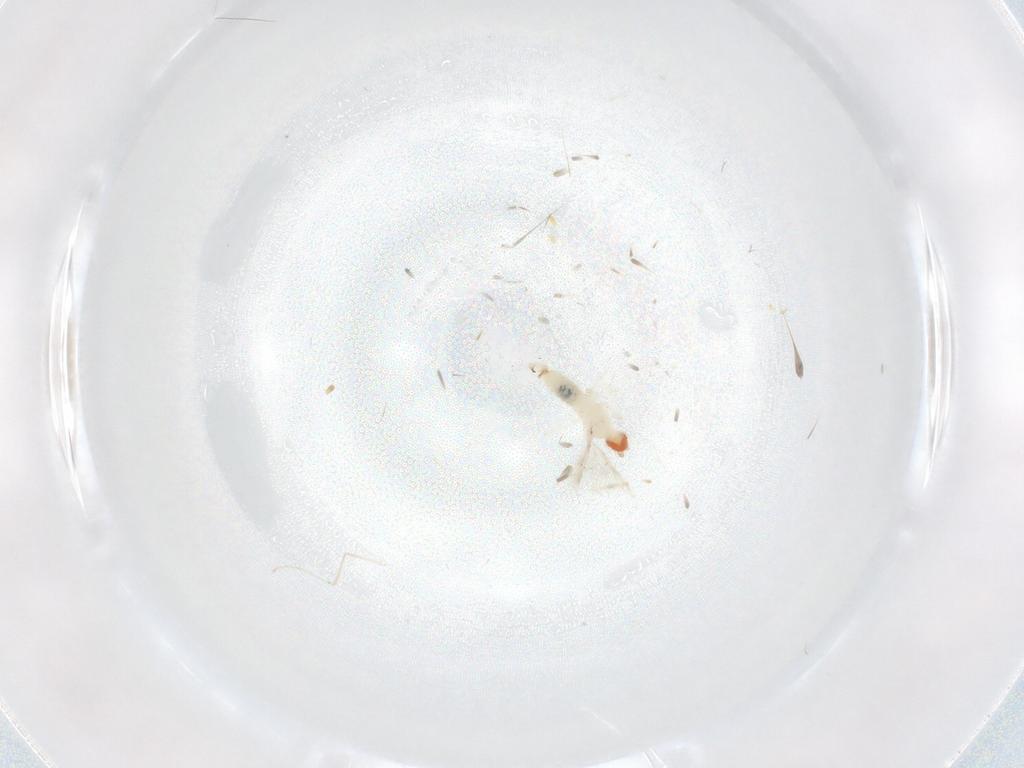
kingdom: Animalia
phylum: Arthropoda
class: Insecta
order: Diptera
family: Cecidomyiidae
